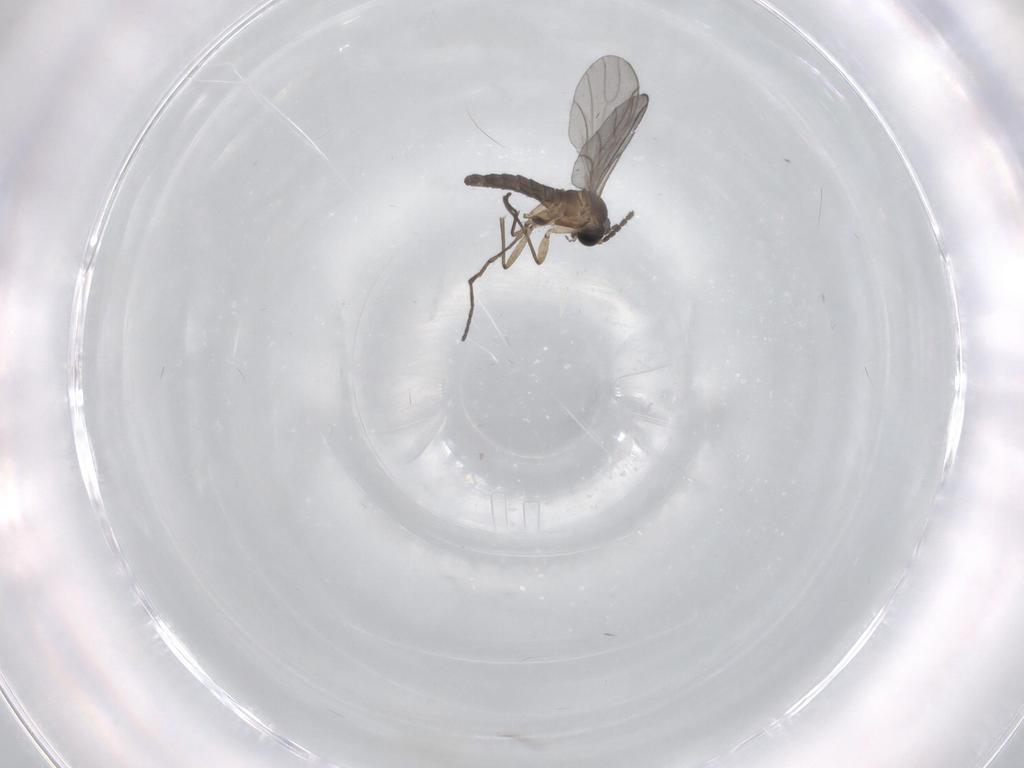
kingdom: Animalia
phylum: Arthropoda
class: Insecta
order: Diptera
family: Sciaridae
